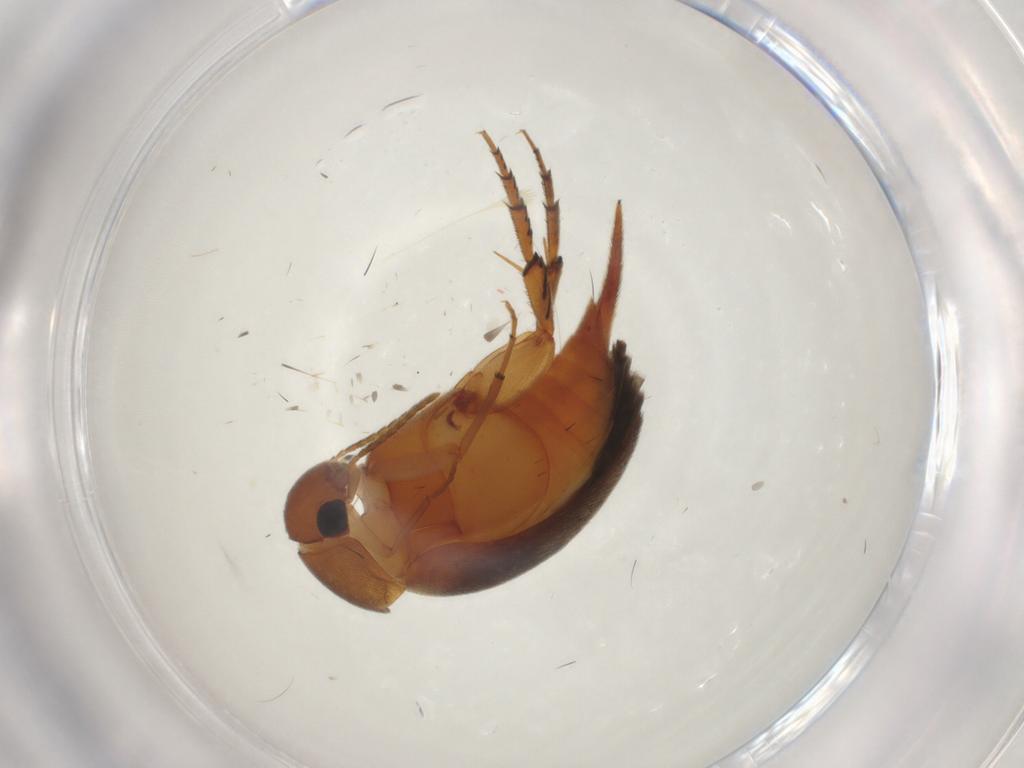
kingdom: Animalia
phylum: Arthropoda
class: Insecta
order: Coleoptera
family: Mordellidae
